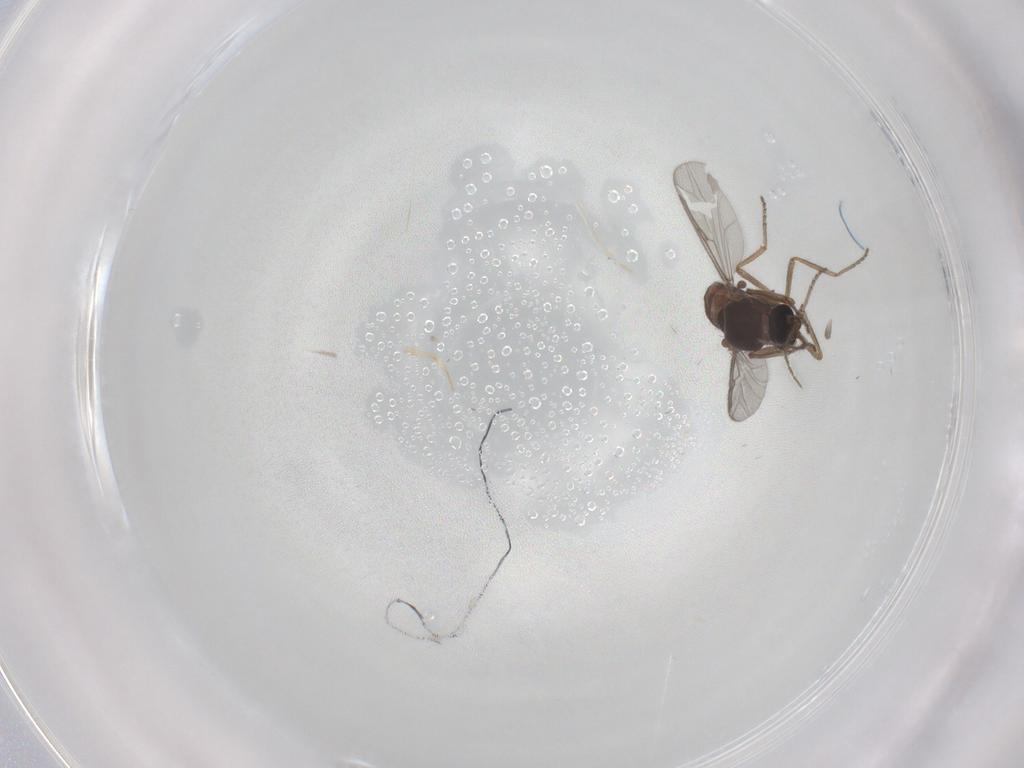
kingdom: Animalia
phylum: Arthropoda
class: Insecta
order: Diptera
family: Ceratopogonidae
